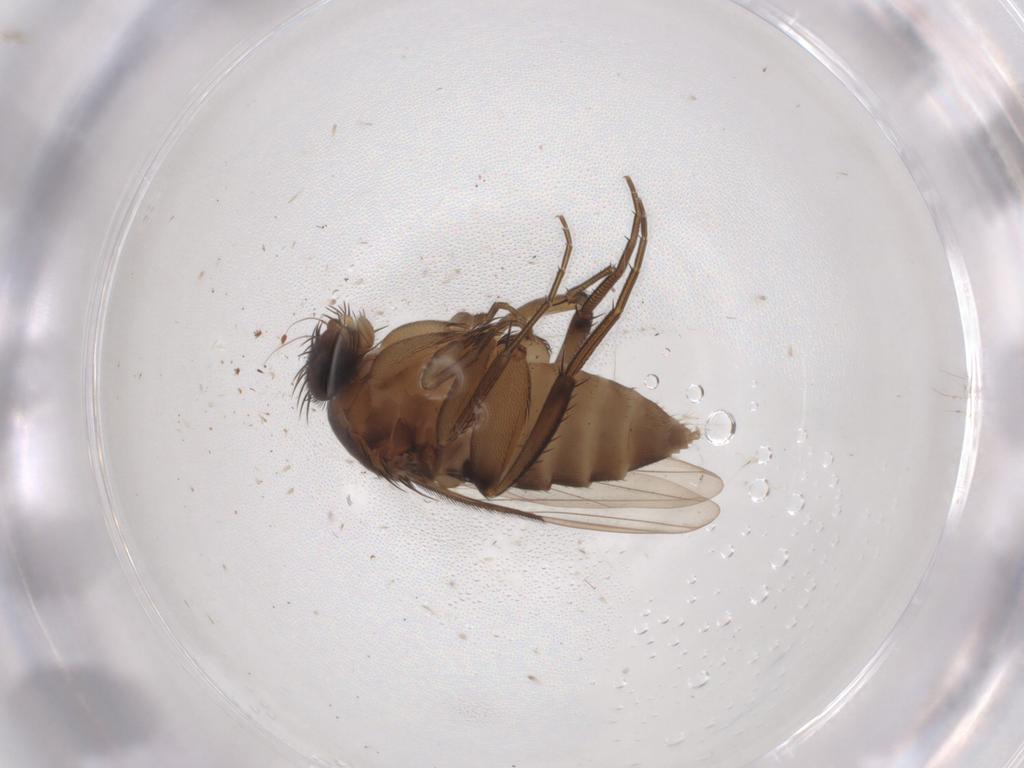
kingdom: Animalia
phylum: Arthropoda
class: Insecta
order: Diptera
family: Phoridae
